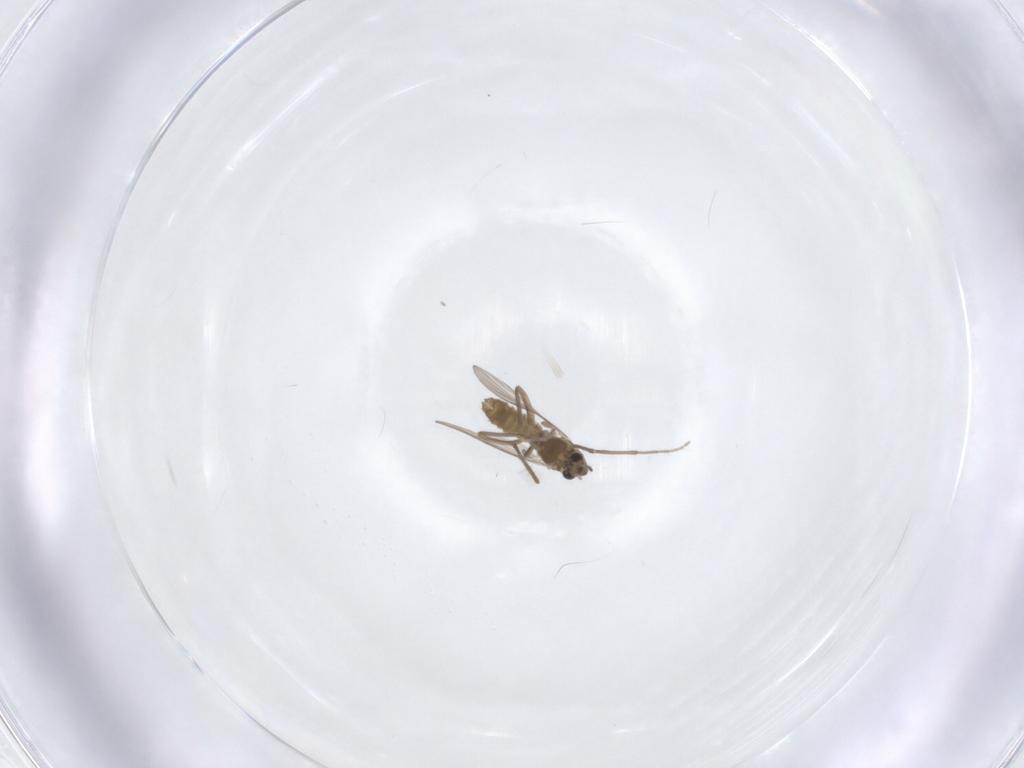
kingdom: Animalia
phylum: Arthropoda
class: Insecta
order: Diptera
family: Chironomidae
